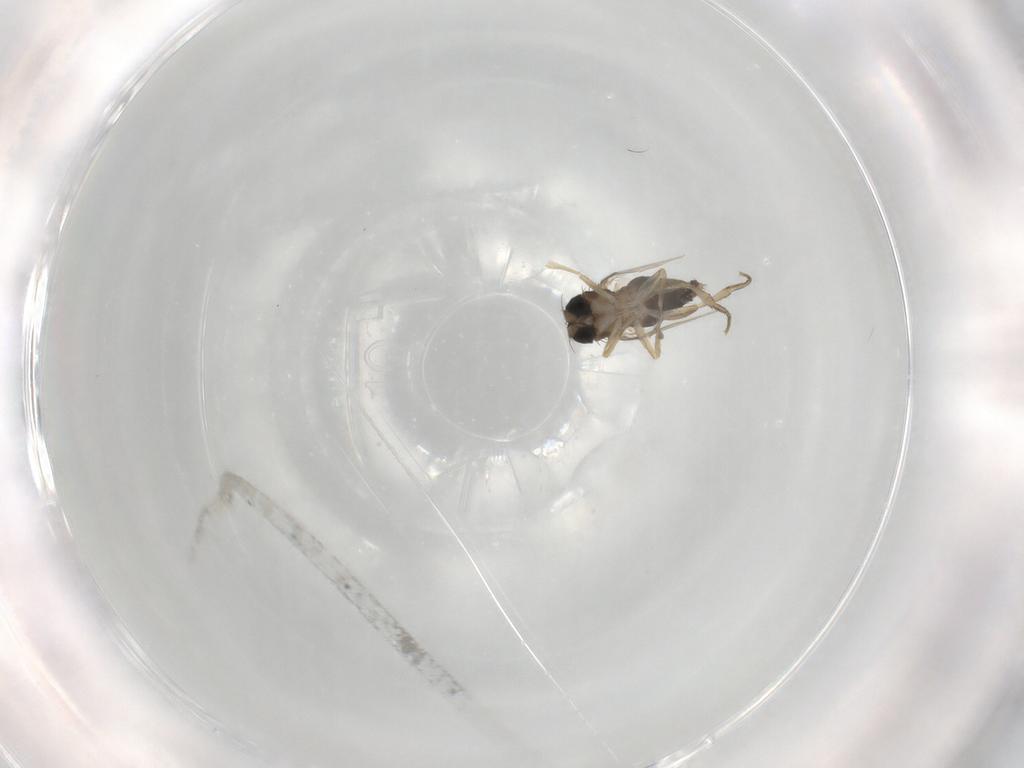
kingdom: Animalia
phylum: Arthropoda
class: Insecta
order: Diptera
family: Phoridae
